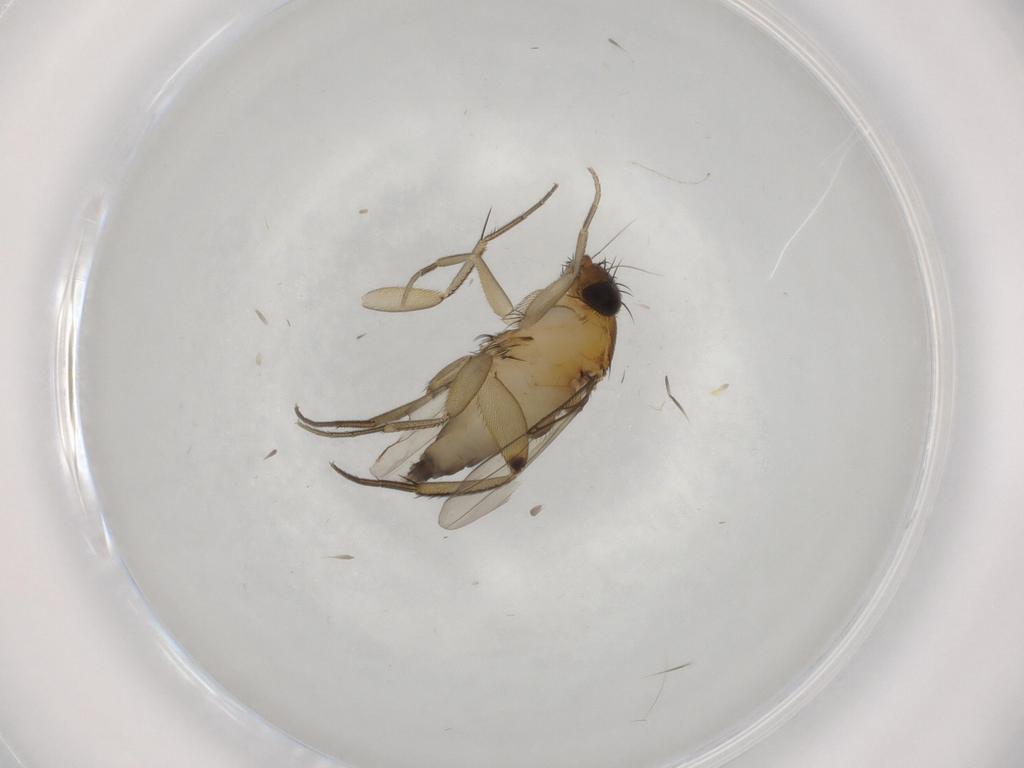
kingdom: Animalia
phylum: Arthropoda
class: Insecta
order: Diptera
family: Phoridae
